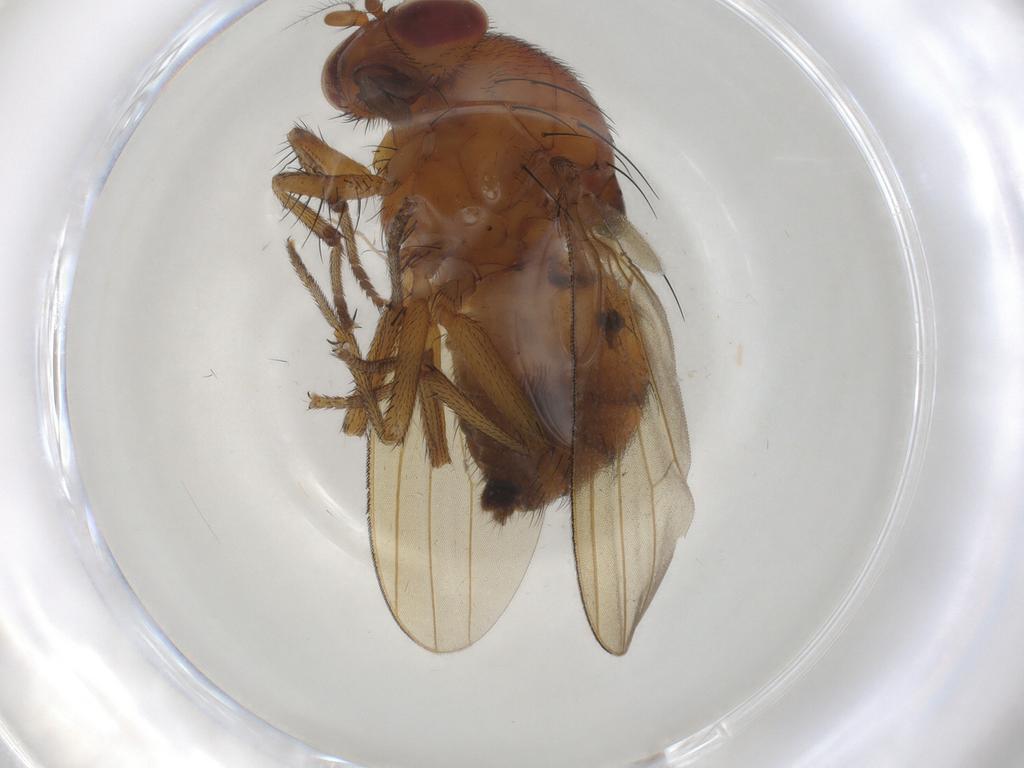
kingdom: Animalia
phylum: Arthropoda
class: Insecta
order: Diptera
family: Chironomidae
